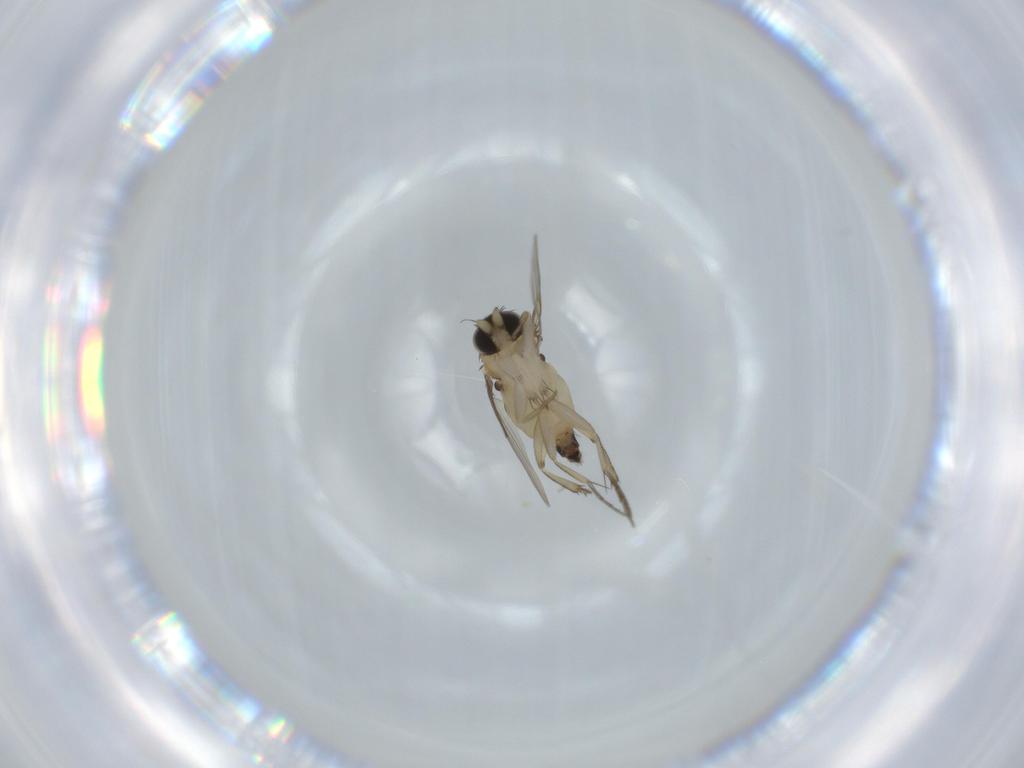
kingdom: Animalia
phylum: Arthropoda
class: Insecta
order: Diptera
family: Phoridae
